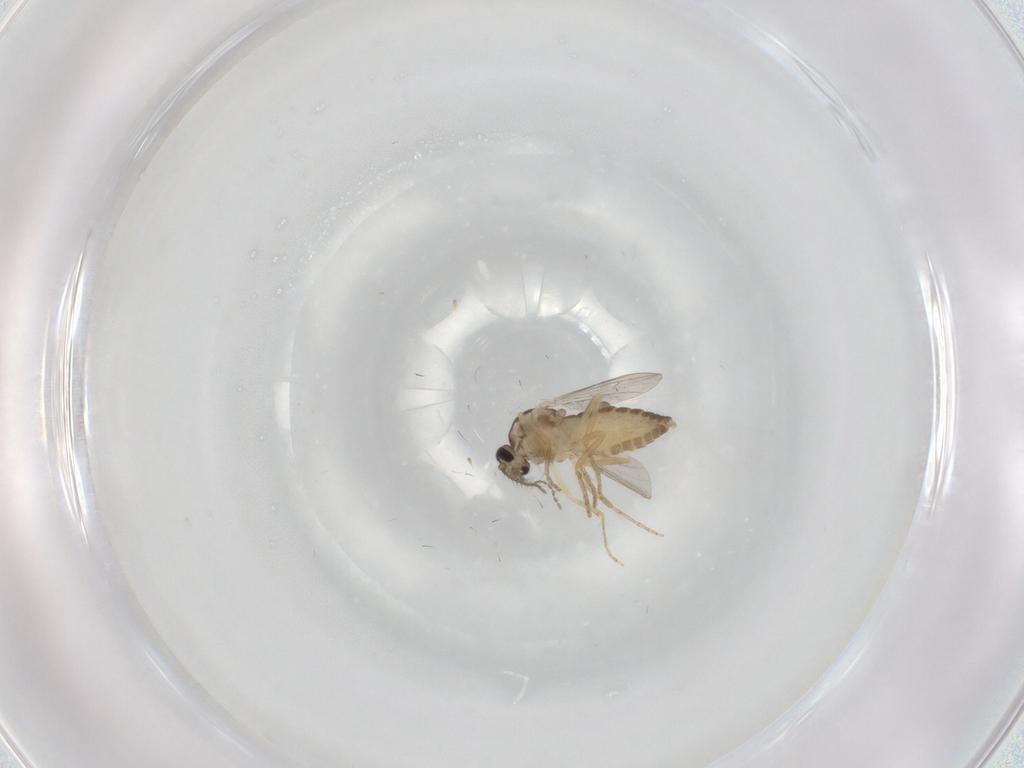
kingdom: Animalia
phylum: Arthropoda
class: Insecta
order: Diptera
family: Ceratopogonidae
